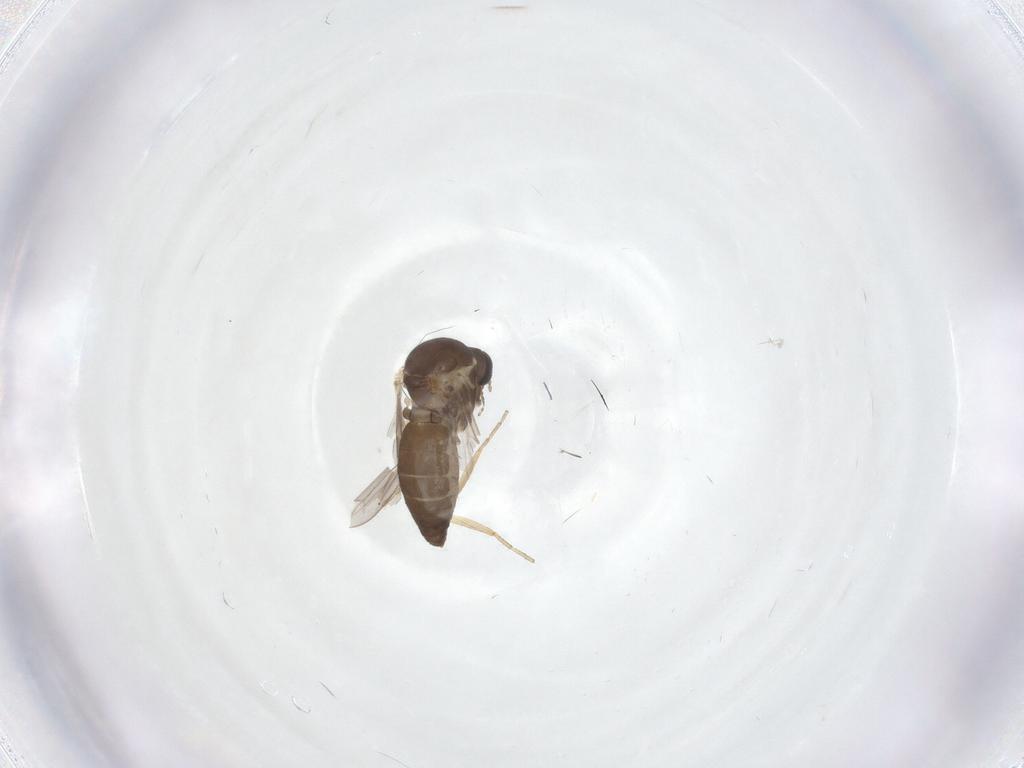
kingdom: Animalia
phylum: Arthropoda
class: Insecta
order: Diptera
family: Ceratopogonidae
